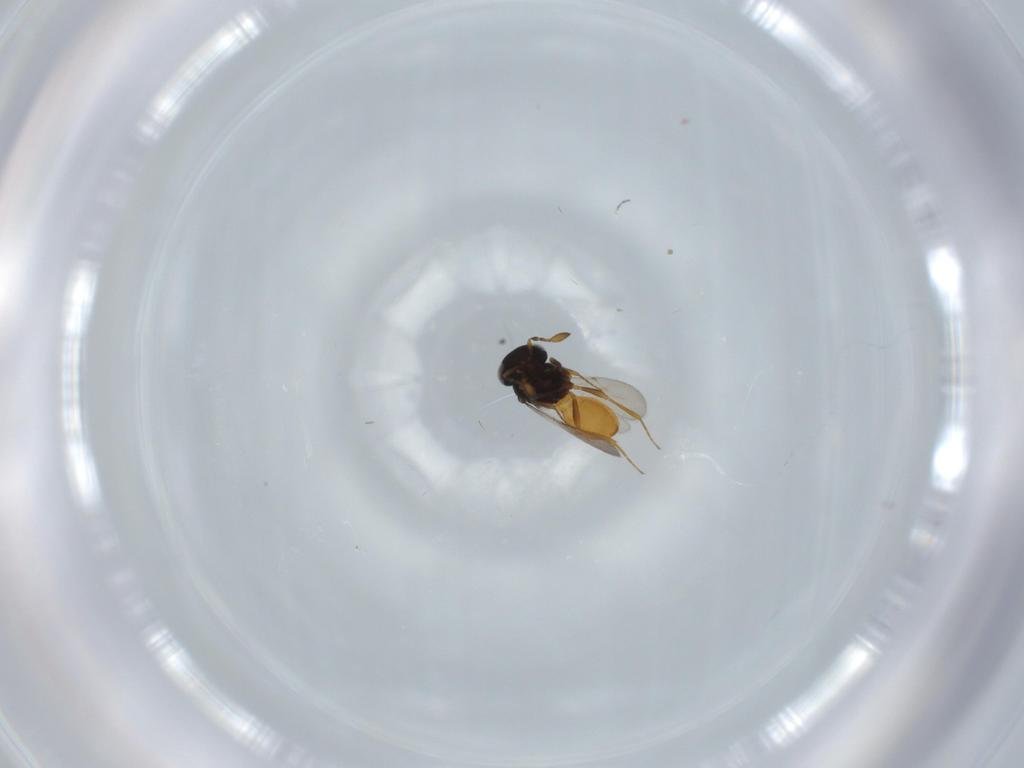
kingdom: Animalia
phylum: Arthropoda
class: Insecta
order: Hymenoptera
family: Scelionidae
